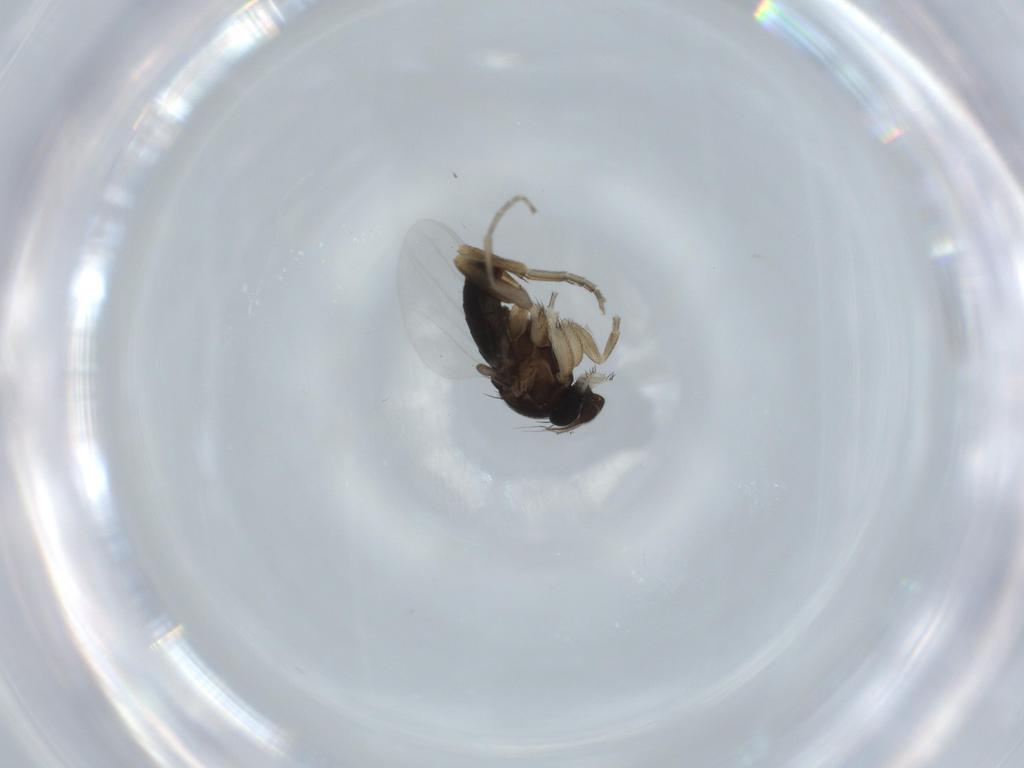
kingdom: Animalia
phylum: Arthropoda
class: Insecta
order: Diptera
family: Phoridae
